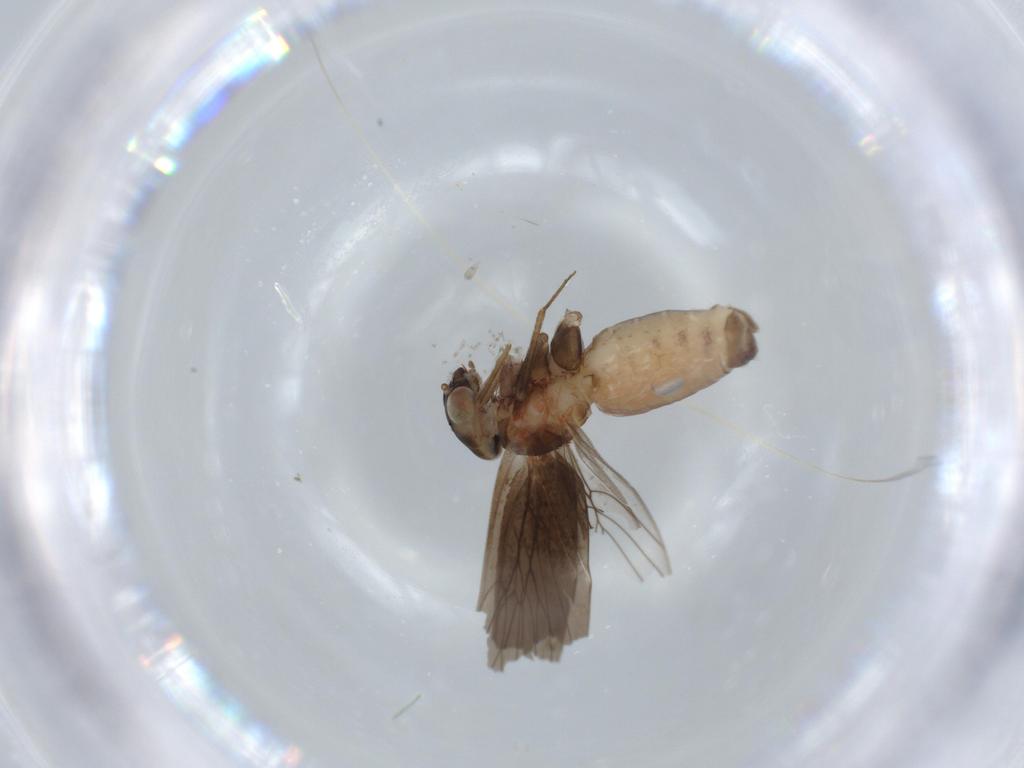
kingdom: Animalia
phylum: Arthropoda
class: Insecta
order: Psocodea
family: Lepidopsocidae
